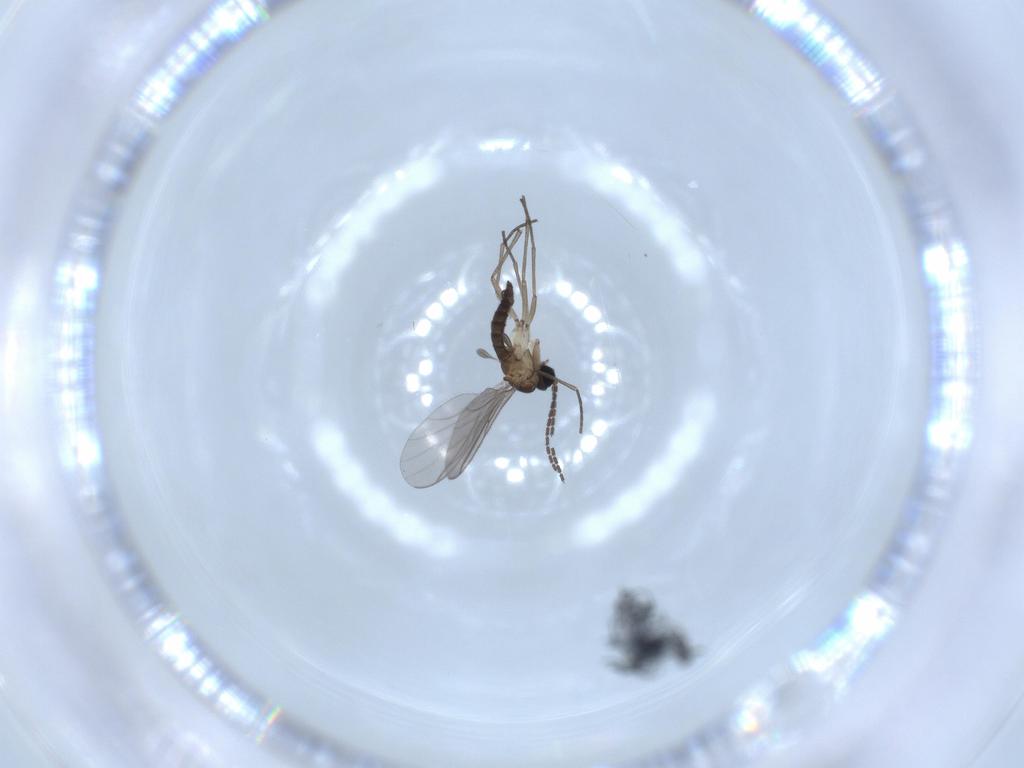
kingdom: Animalia
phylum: Arthropoda
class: Insecta
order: Diptera
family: Sciaridae
